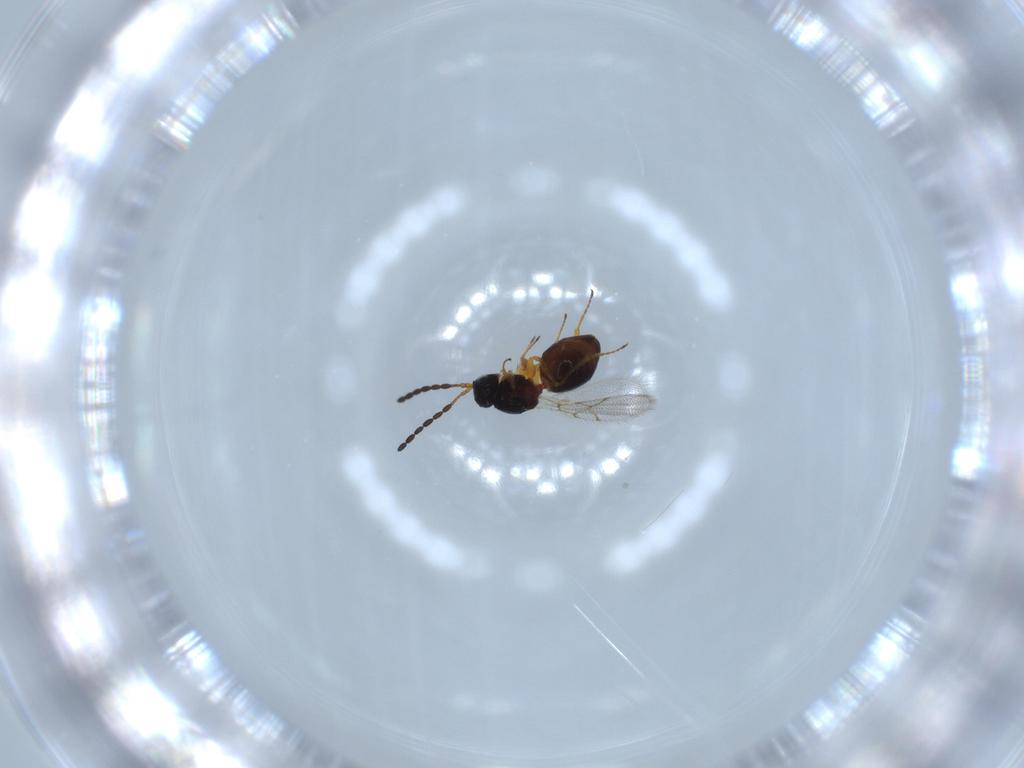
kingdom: Animalia
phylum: Arthropoda
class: Insecta
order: Hymenoptera
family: Figitidae
